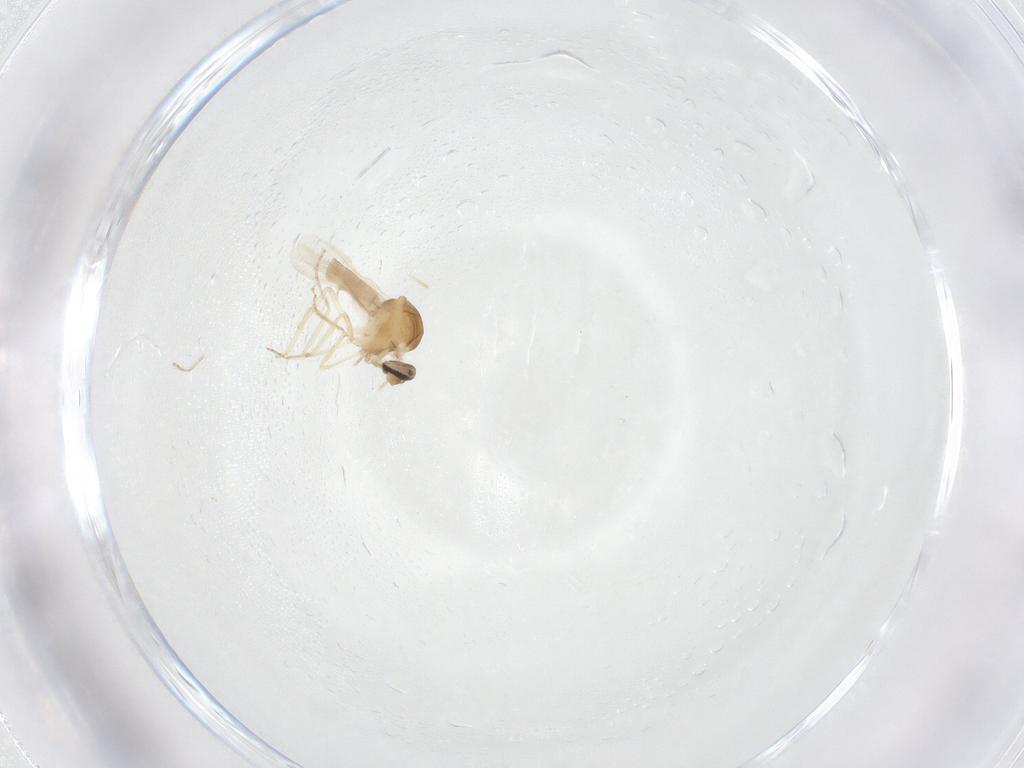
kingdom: Animalia
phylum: Arthropoda
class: Insecta
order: Diptera
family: Ceratopogonidae
